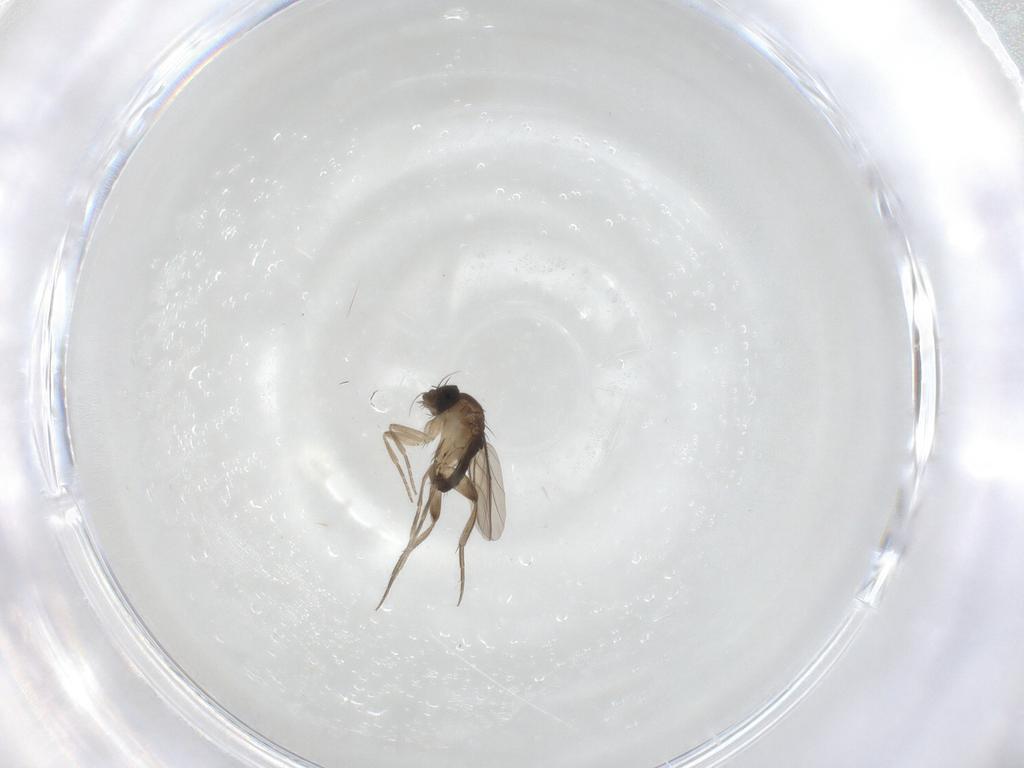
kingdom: Animalia
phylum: Arthropoda
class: Insecta
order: Diptera
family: Phoridae
